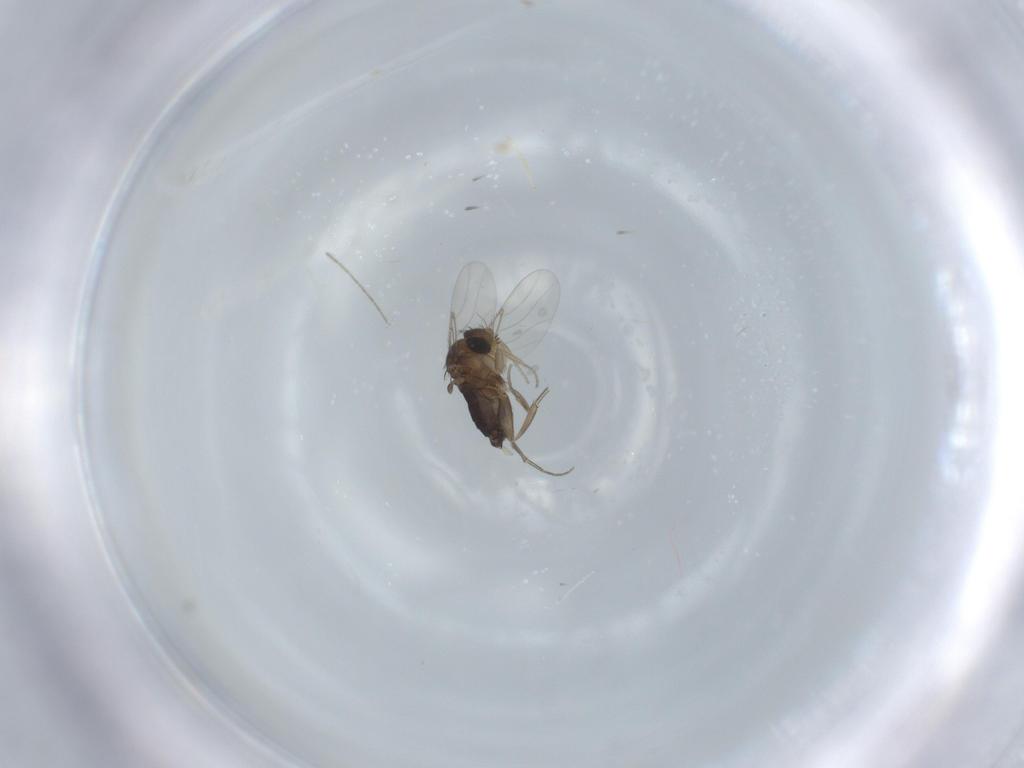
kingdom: Animalia
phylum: Arthropoda
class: Insecta
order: Diptera
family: Phoridae
